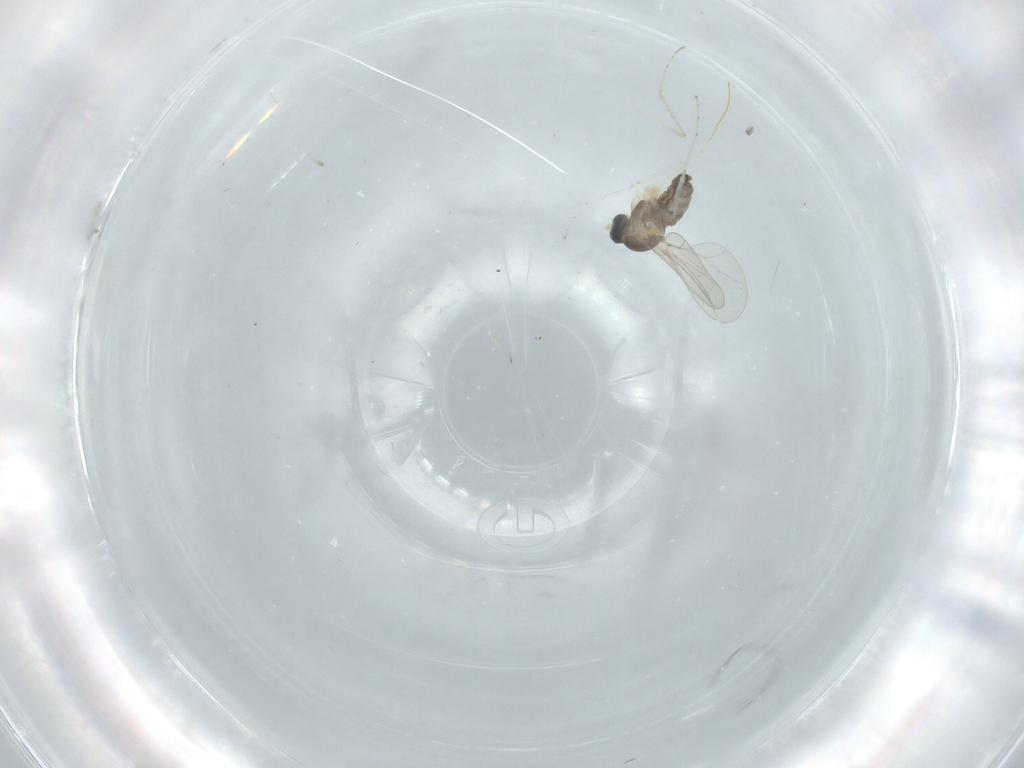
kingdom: Animalia
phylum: Arthropoda
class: Insecta
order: Diptera
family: Cecidomyiidae
